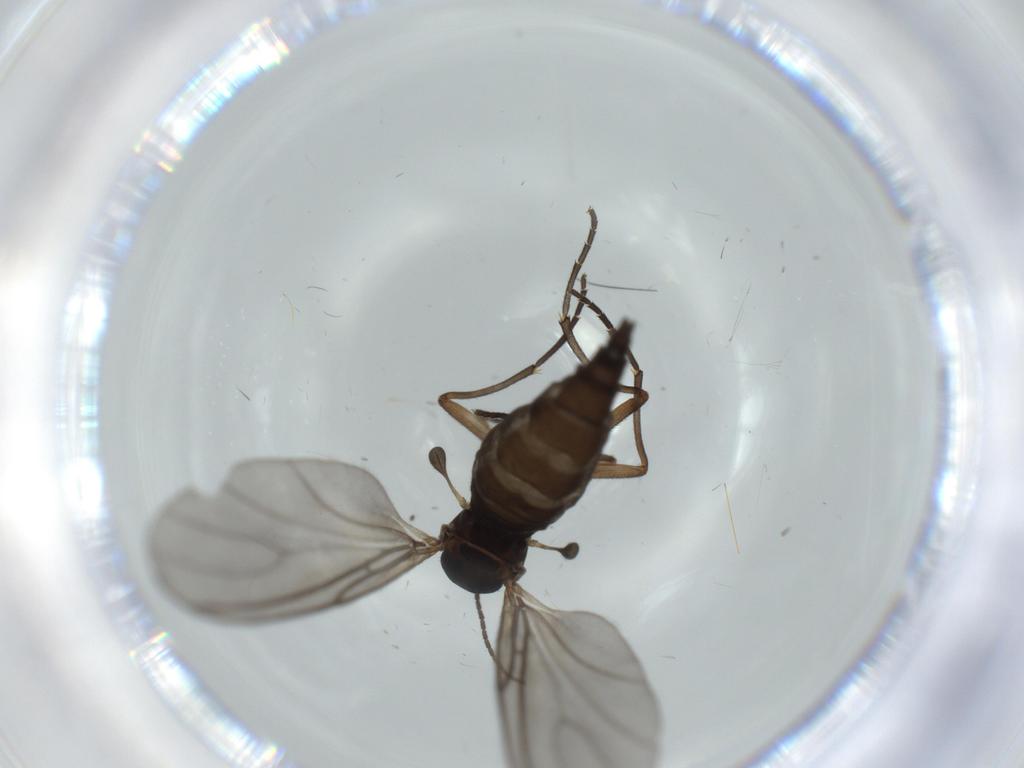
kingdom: Animalia
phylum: Arthropoda
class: Insecta
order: Diptera
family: Sciaridae
